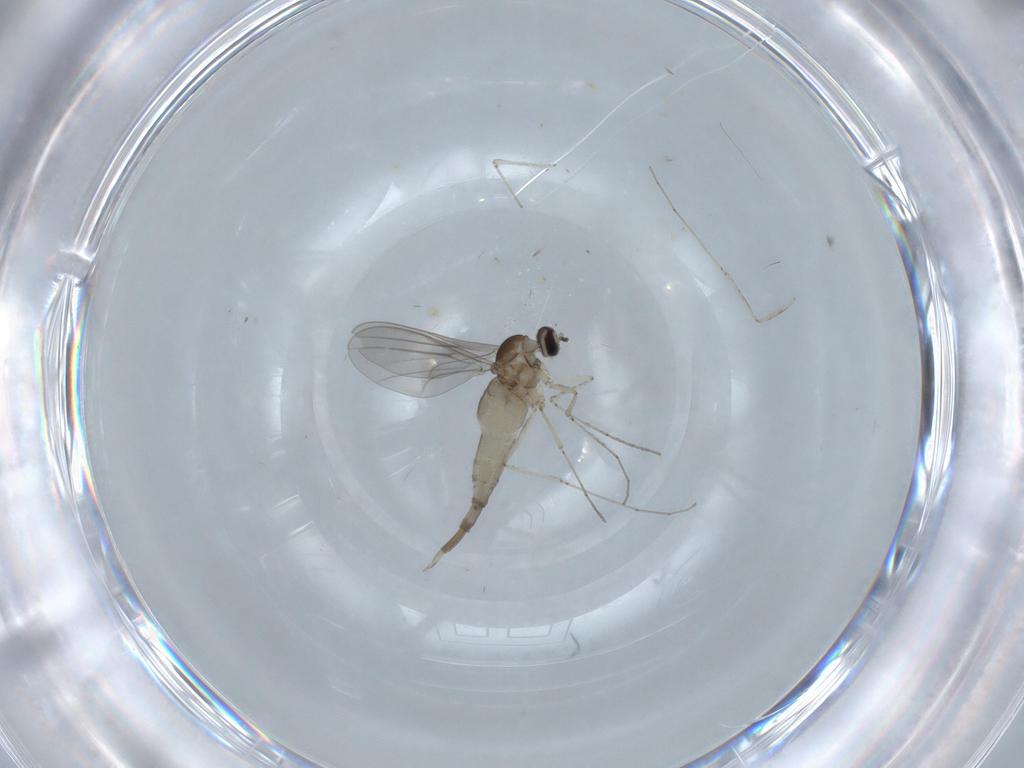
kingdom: Animalia
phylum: Arthropoda
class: Insecta
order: Diptera
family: Cecidomyiidae
